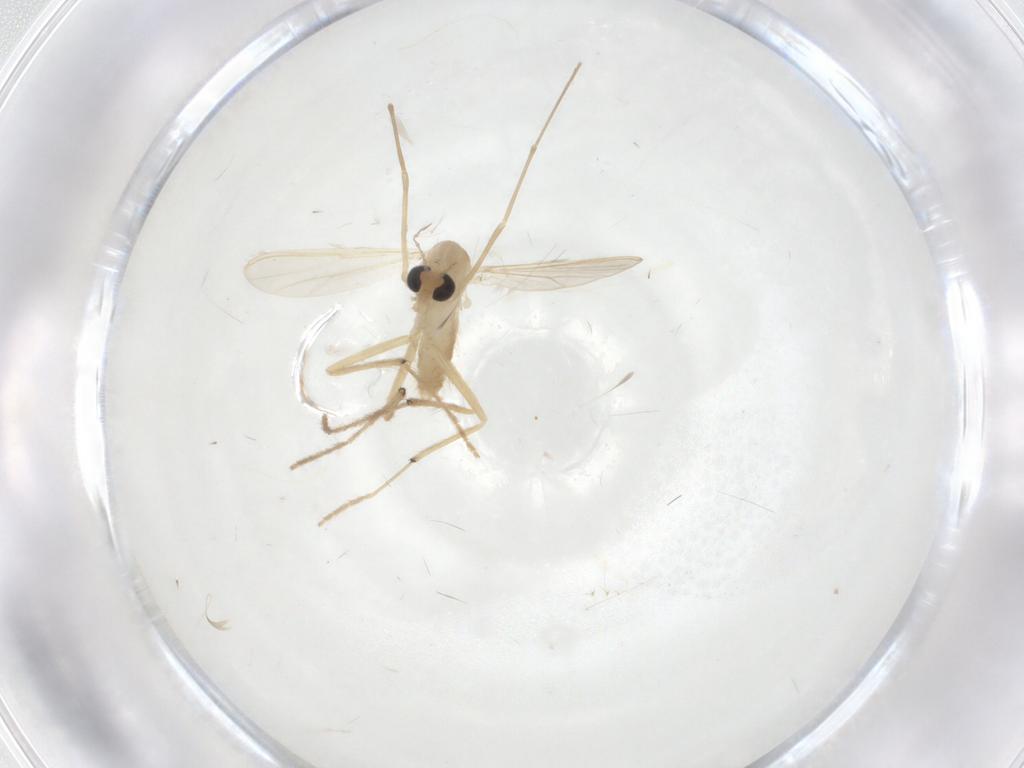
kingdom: Animalia
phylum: Arthropoda
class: Insecta
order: Diptera
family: Chironomidae
